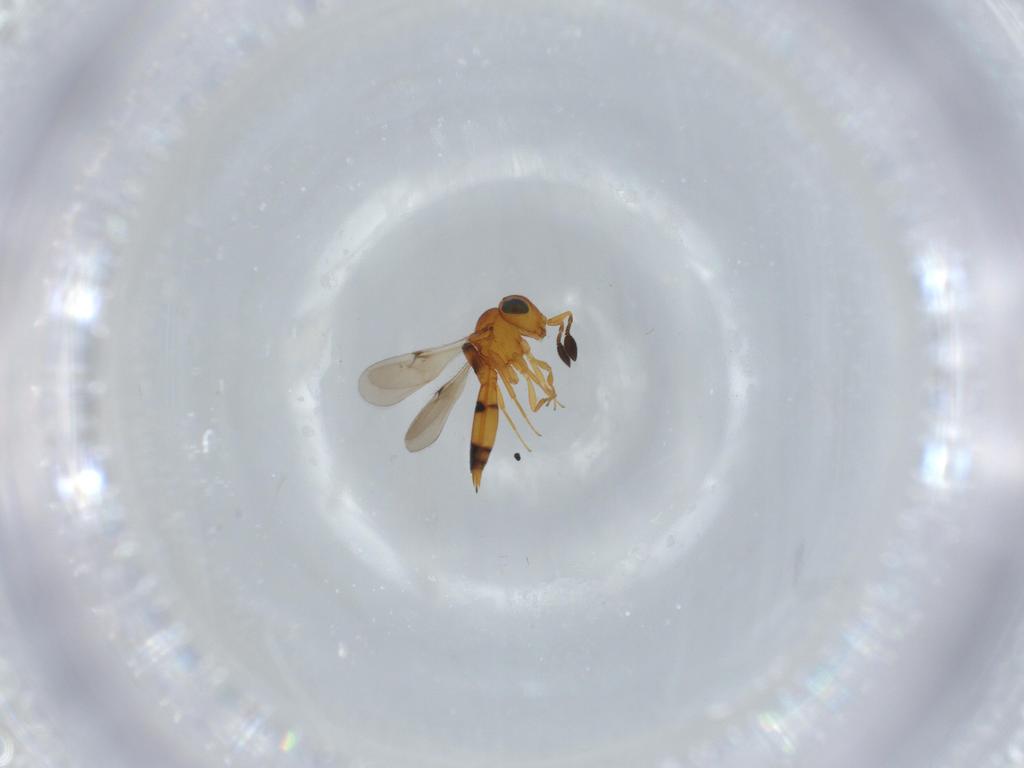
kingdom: Animalia
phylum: Arthropoda
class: Insecta
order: Hymenoptera
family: Scelionidae
